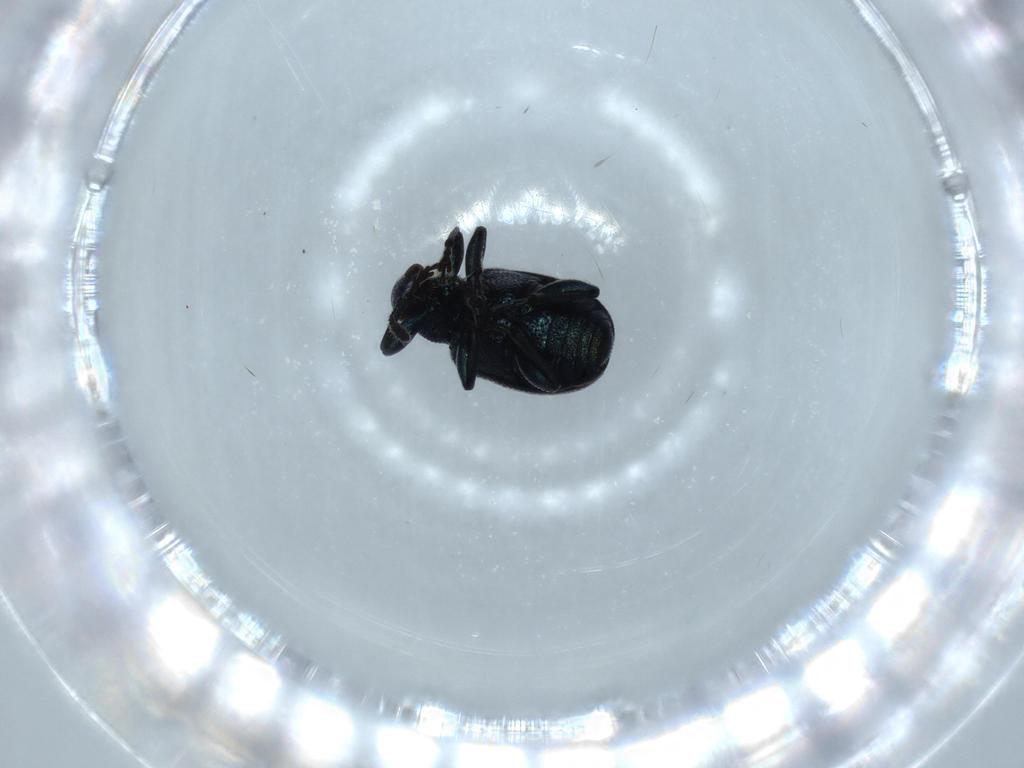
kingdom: Animalia
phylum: Arthropoda
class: Insecta
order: Coleoptera
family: Attelabidae
